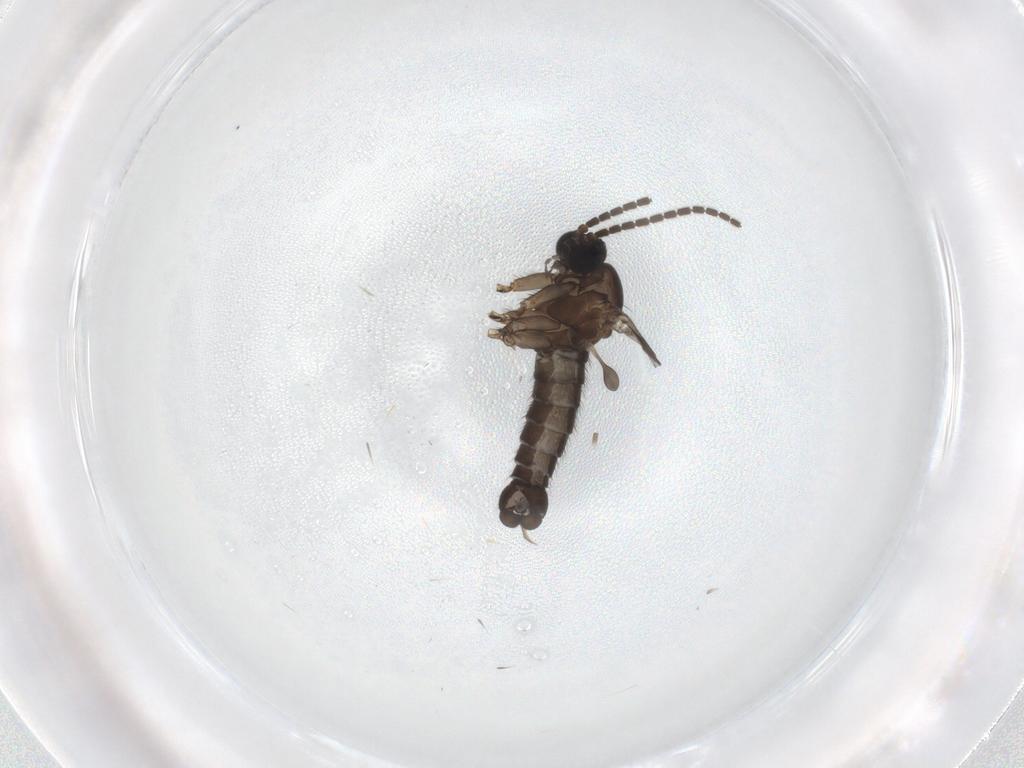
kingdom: Animalia
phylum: Arthropoda
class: Insecta
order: Diptera
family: Sciaridae
